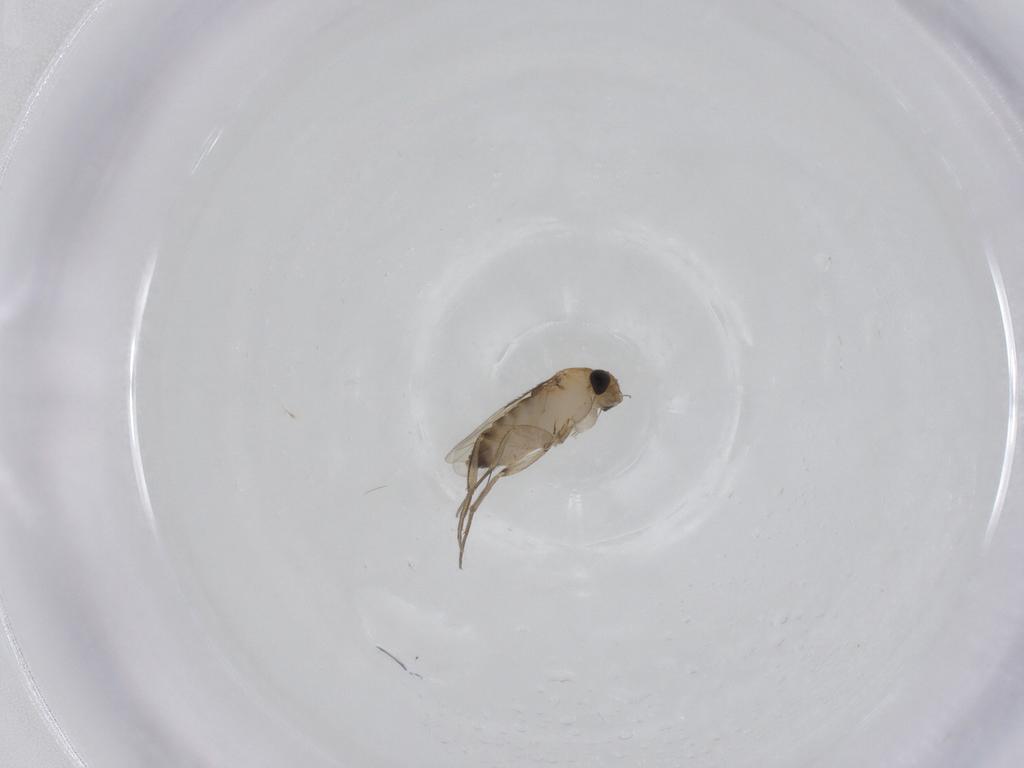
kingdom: Animalia
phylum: Arthropoda
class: Insecta
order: Diptera
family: Phoridae
